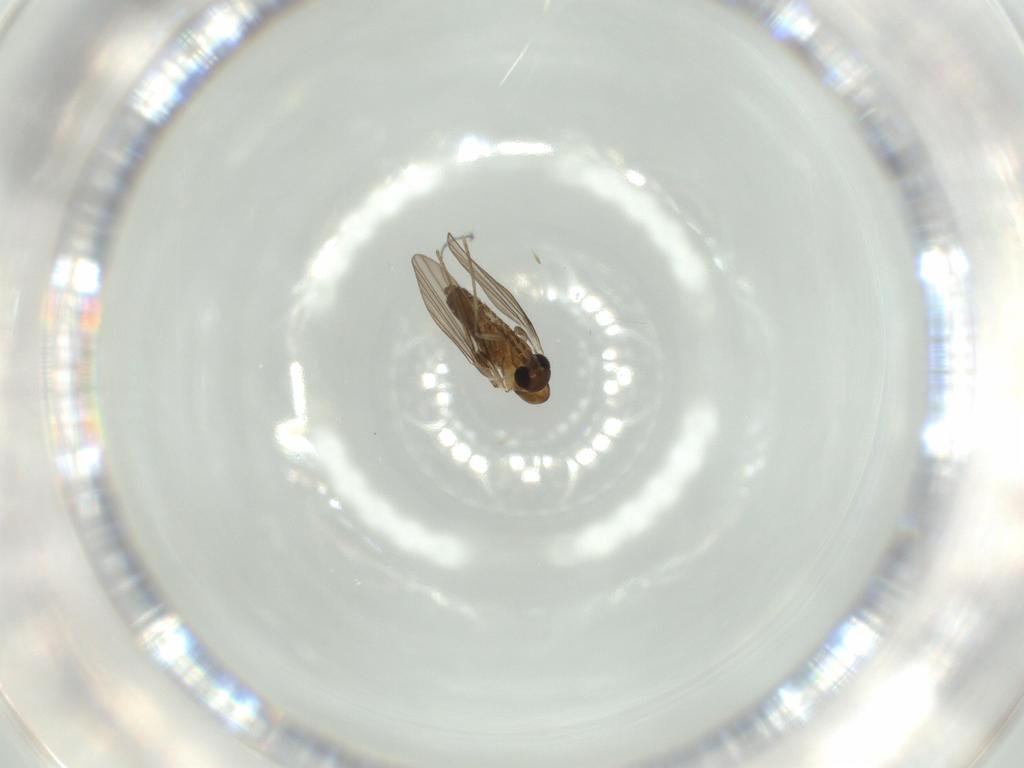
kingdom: Animalia
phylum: Arthropoda
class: Insecta
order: Diptera
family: Psychodidae
